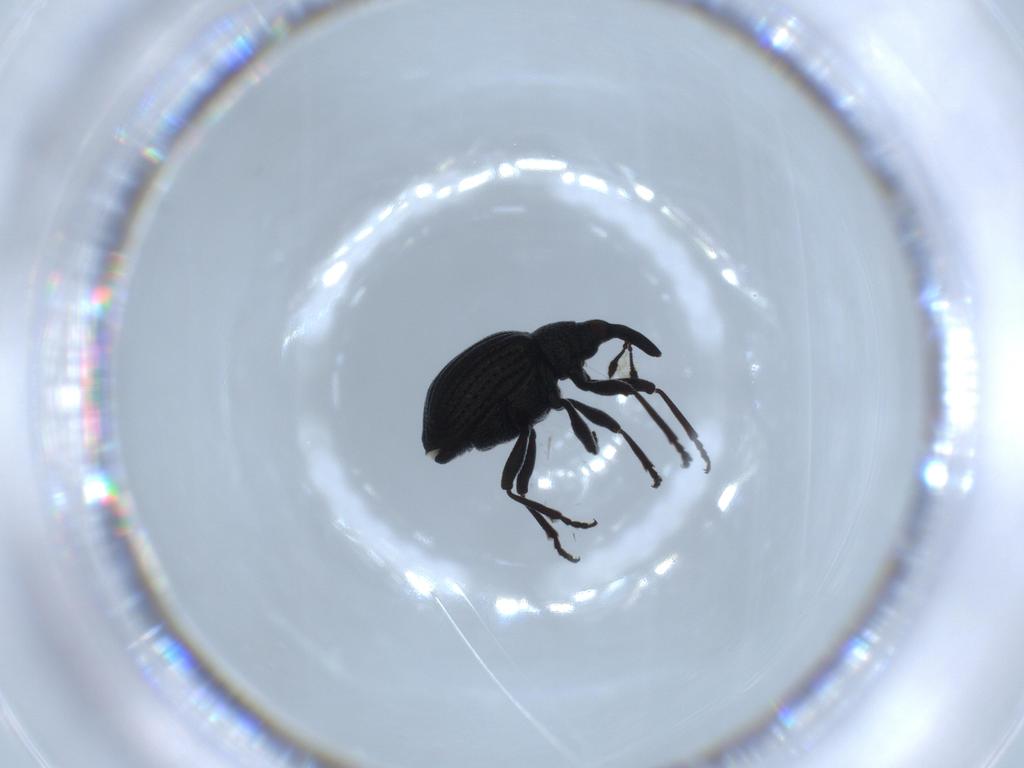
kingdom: Animalia
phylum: Arthropoda
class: Insecta
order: Coleoptera
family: Brentidae
